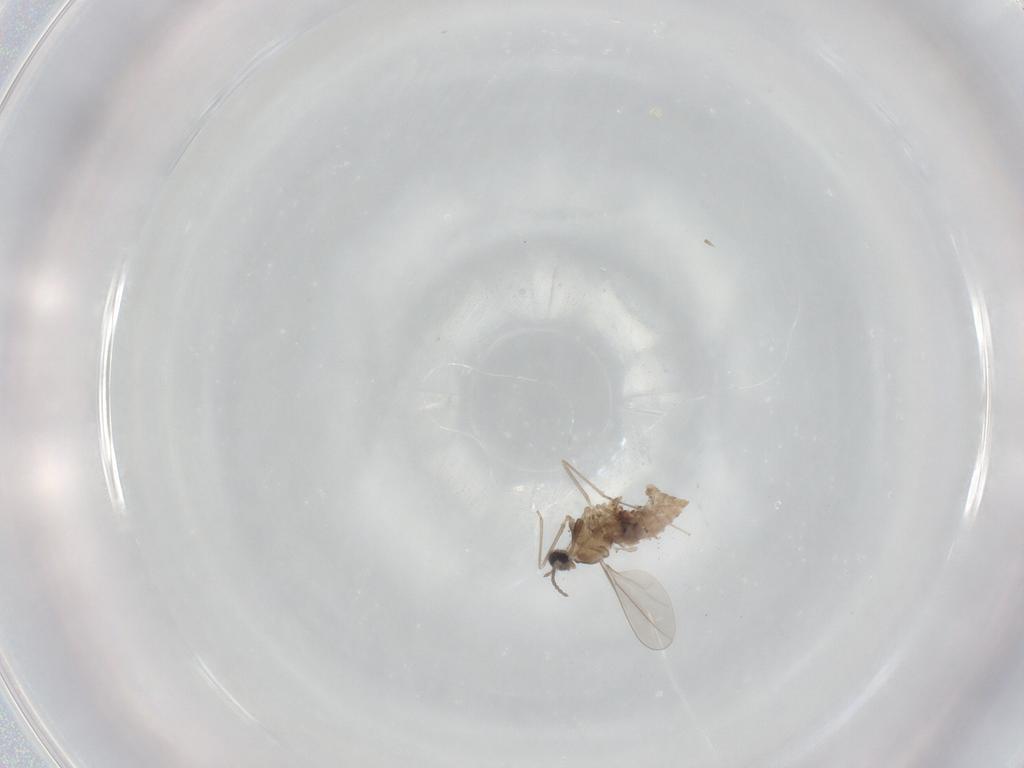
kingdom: Animalia
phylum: Arthropoda
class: Insecta
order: Diptera
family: Cecidomyiidae
